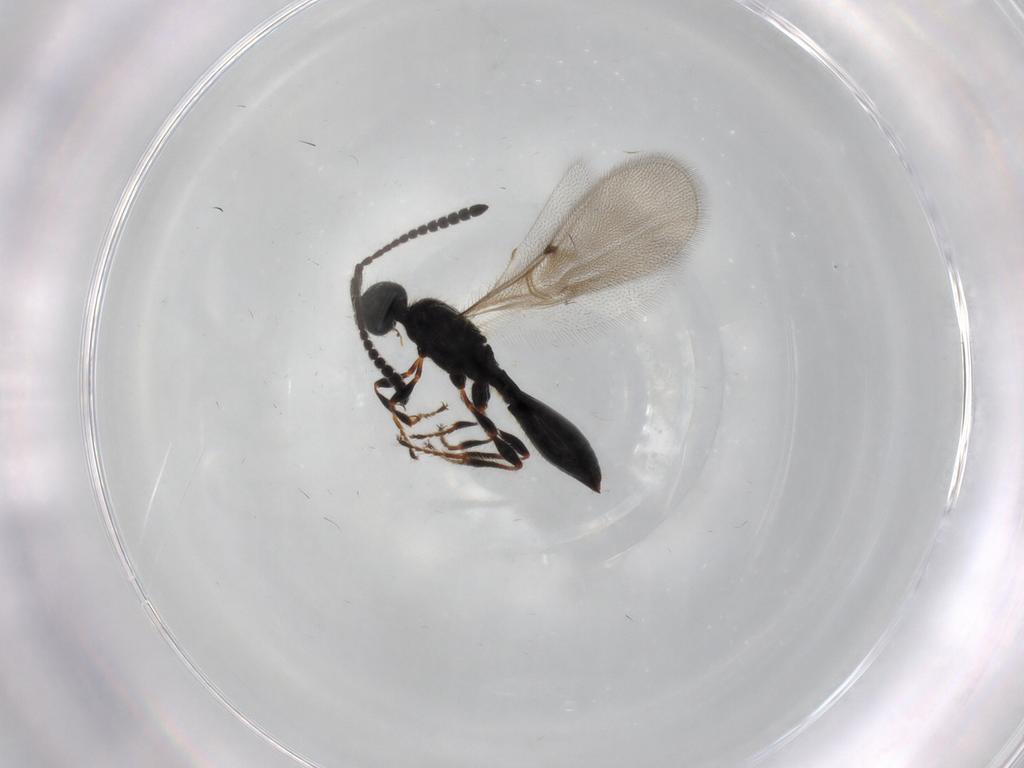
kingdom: Animalia
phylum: Arthropoda
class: Insecta
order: Hymenoptera
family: Diapriidae
